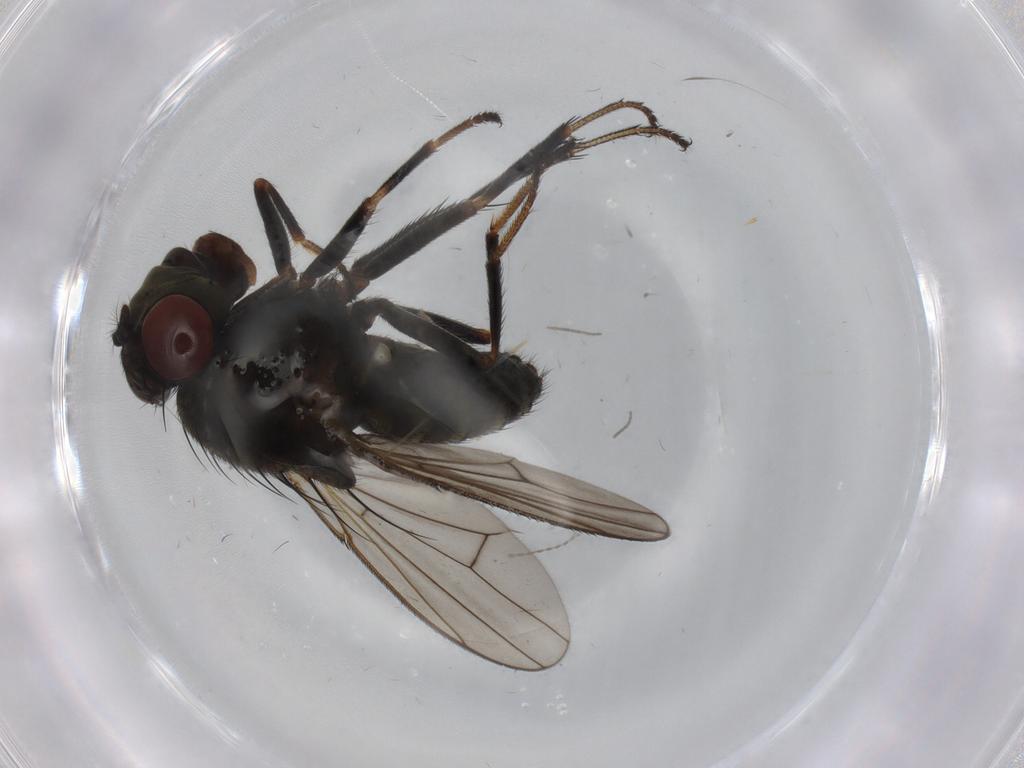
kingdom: Animalia
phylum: Arthropoda
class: Insecta
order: Diptera
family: Ephydridae
